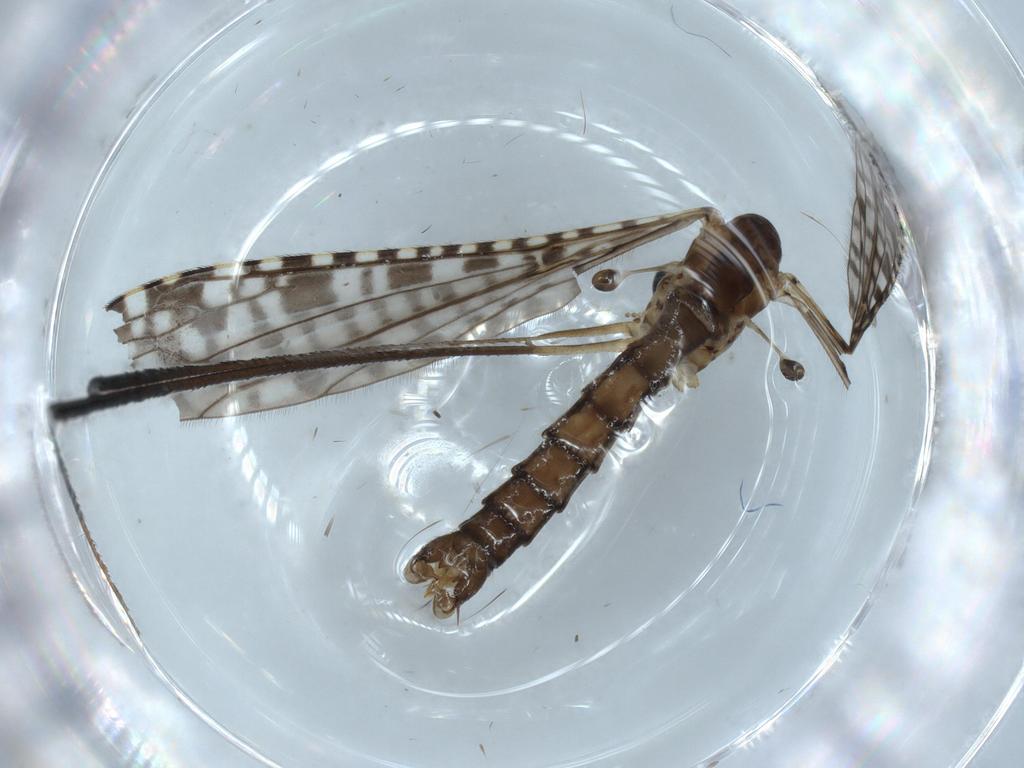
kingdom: Animalia
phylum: Arthropoda
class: Insecta
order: Diptera
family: Limoniidae
